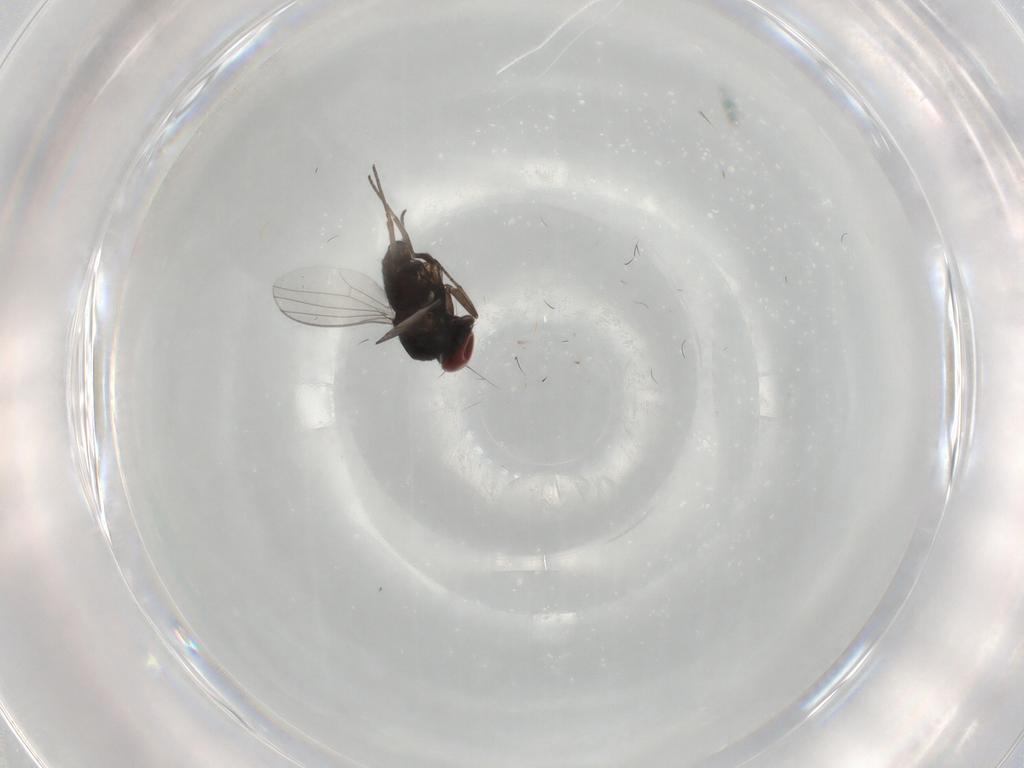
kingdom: Animalia
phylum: Arthropoda
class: Insecta
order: Diptera
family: Dolichopodidae
